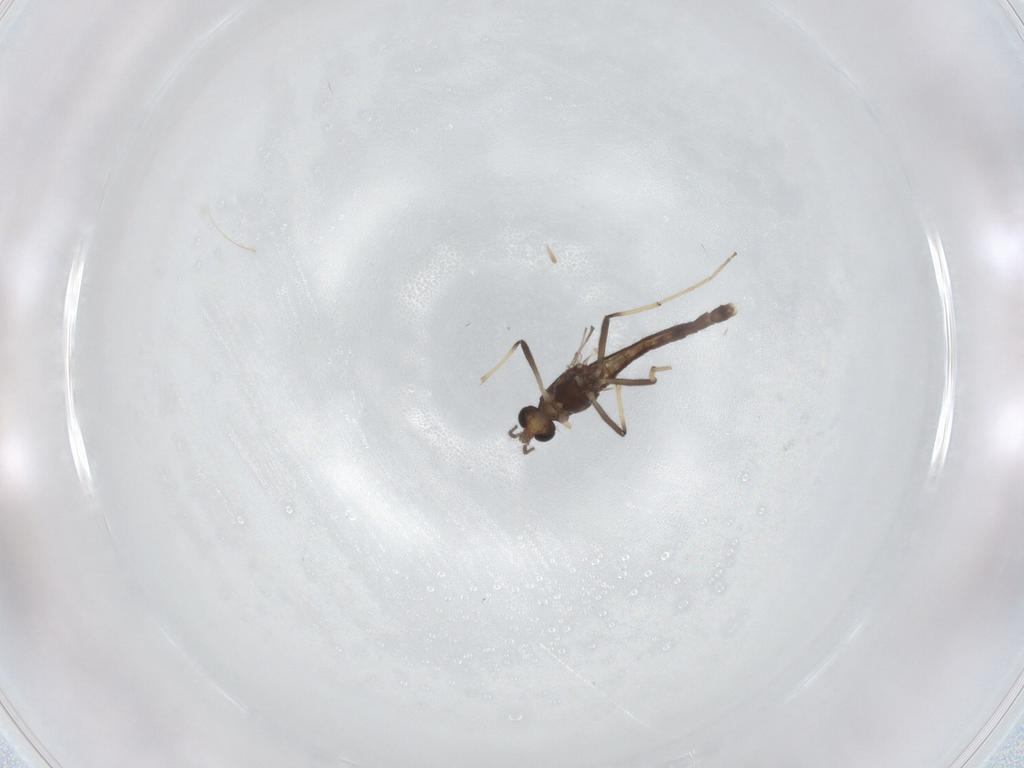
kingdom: Animalia
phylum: Arthropoda
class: Insecta
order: Diptera
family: Chironomidae
